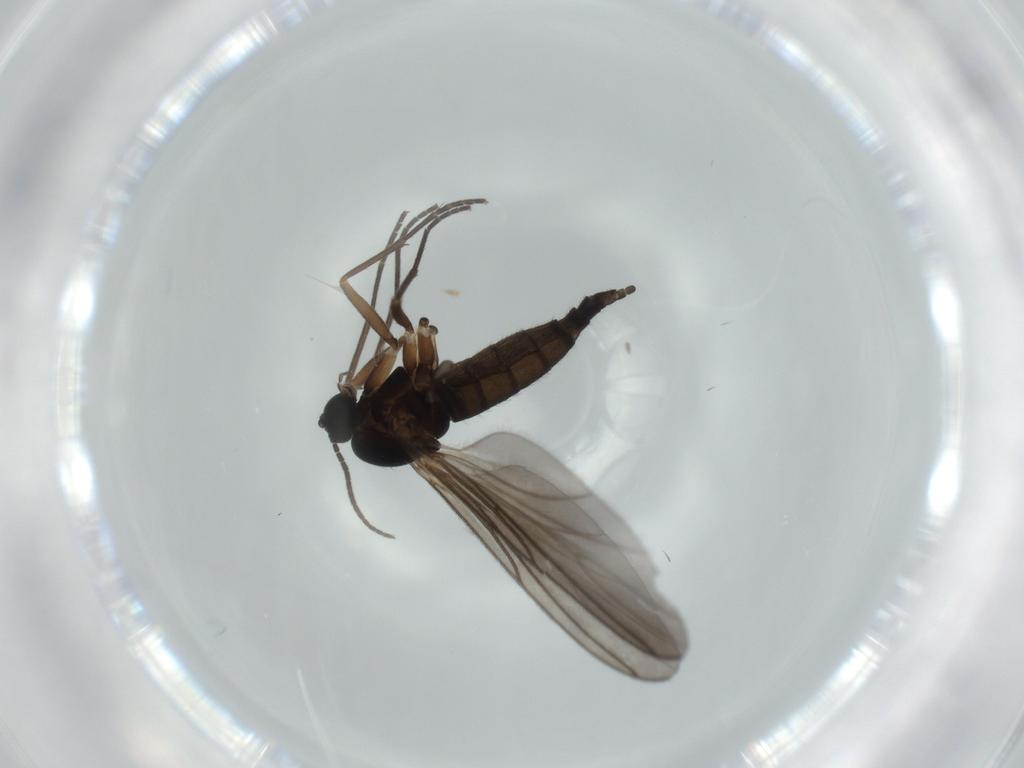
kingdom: Animalia
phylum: Arthropoda
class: Insecta
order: Diptera
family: Sciaridae
